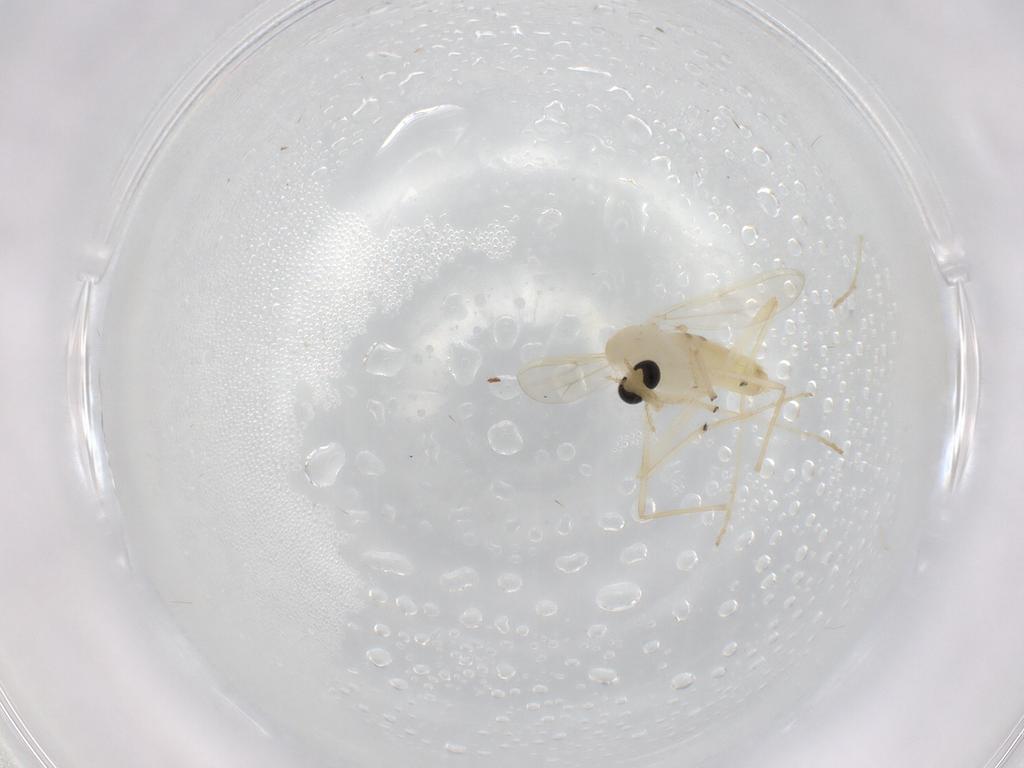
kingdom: Animalia
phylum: Arthropoda
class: Insecta
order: Diptera
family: Chironomidae
